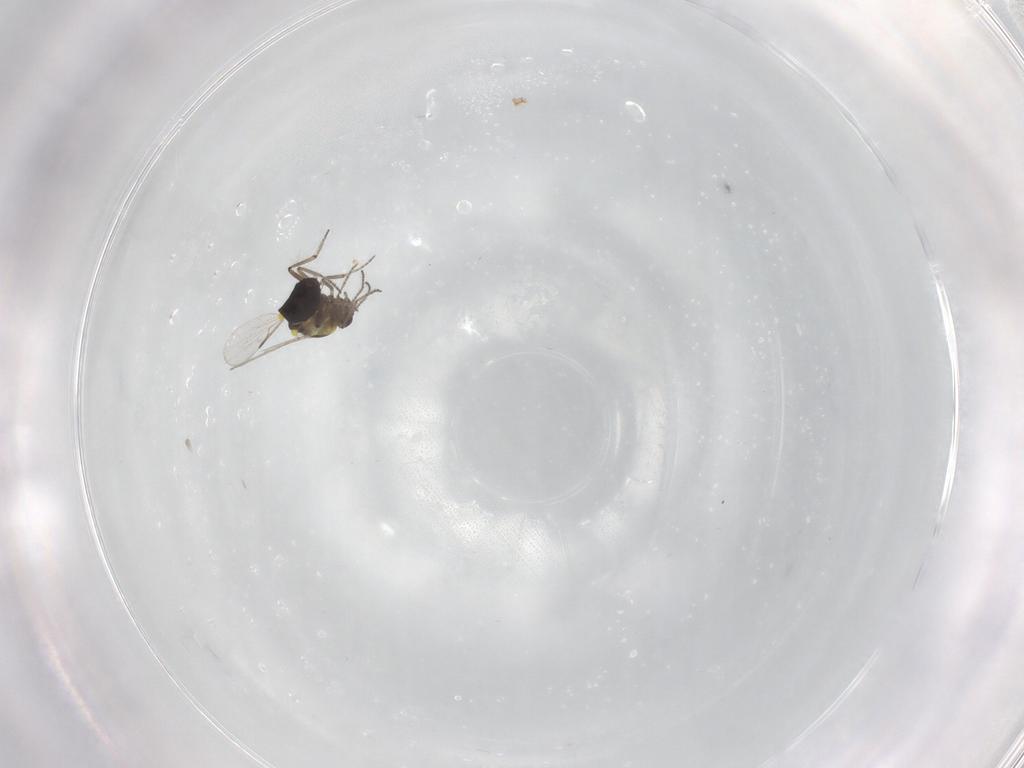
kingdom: Animalia
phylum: Arthropoda
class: Insecta
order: Diptera
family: Ceratopogonidae
